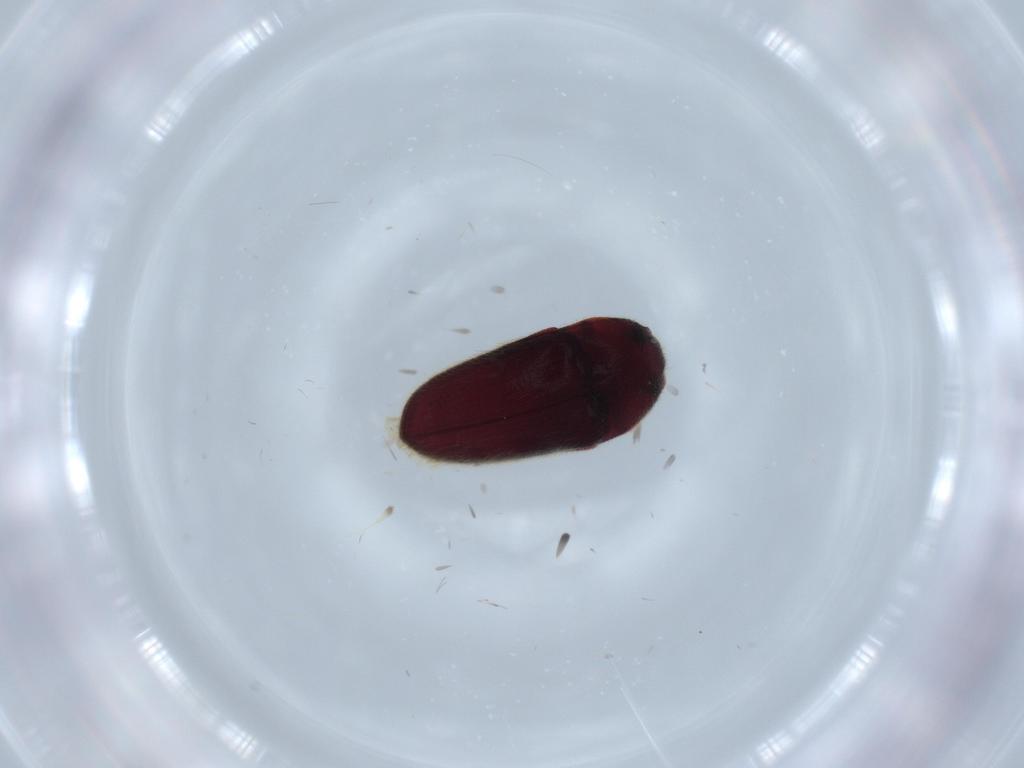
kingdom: Animalia
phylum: Arthropoda
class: Insecta
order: Coleoptera
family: Throscidae
